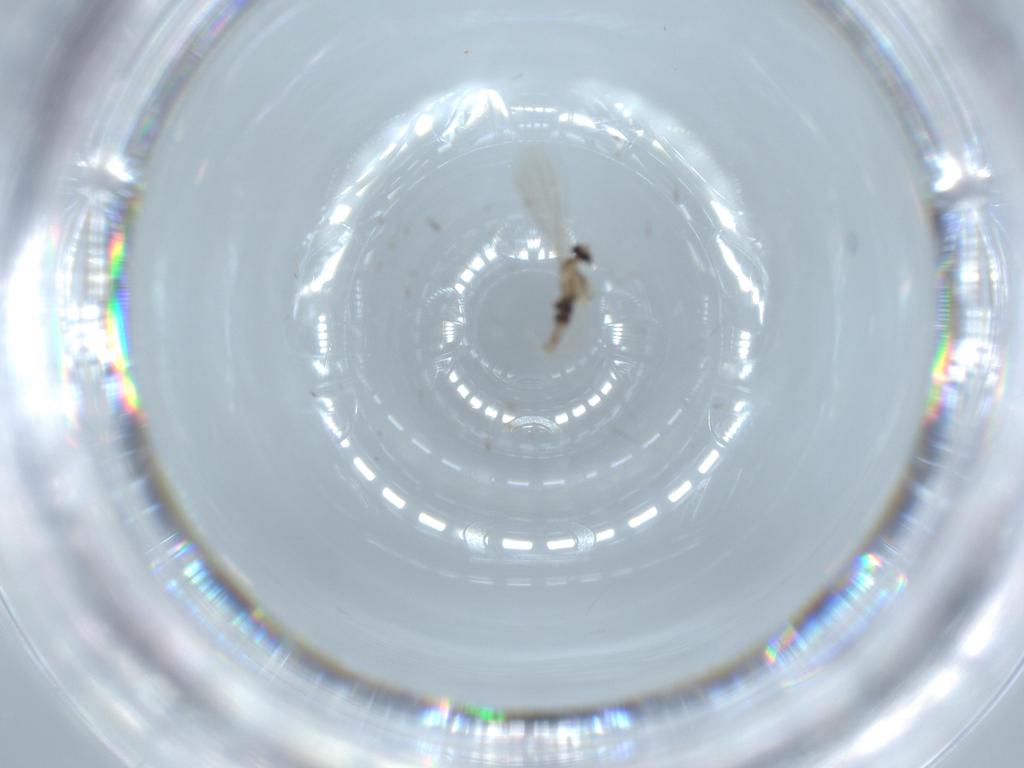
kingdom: Animalia
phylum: Arthropoda
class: Insecta
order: Diptera
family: Cecidomyiidae
